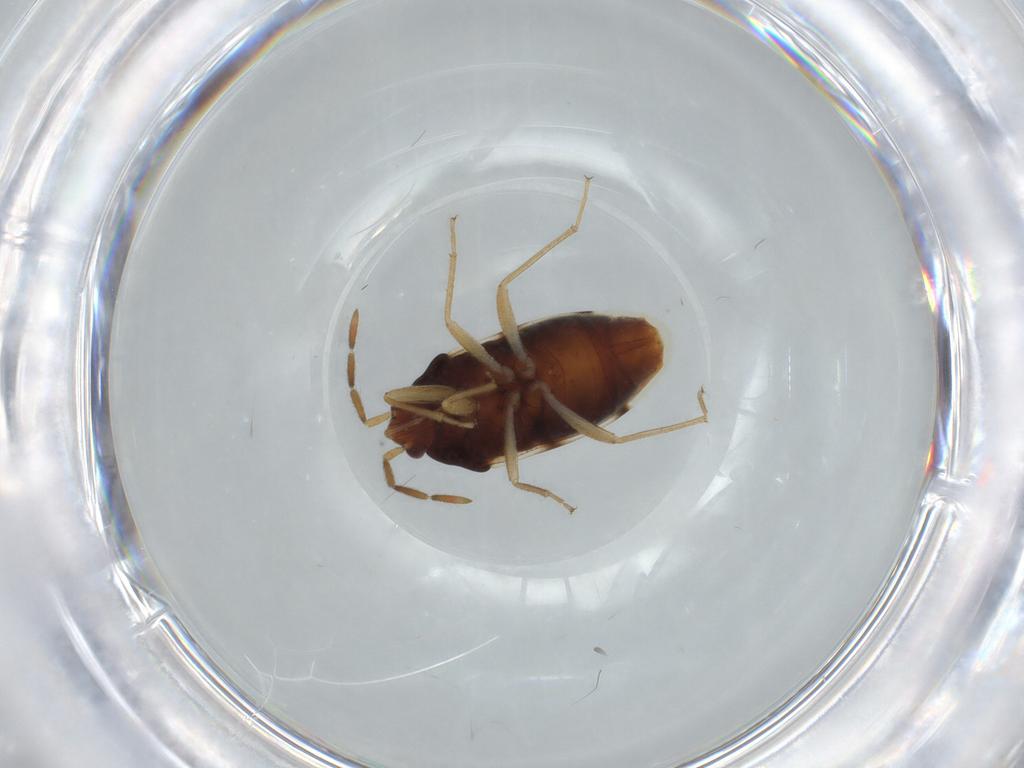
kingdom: Animalia
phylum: Arthropoda
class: Insecta
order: Hemiptera
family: Rhyparochromidae
